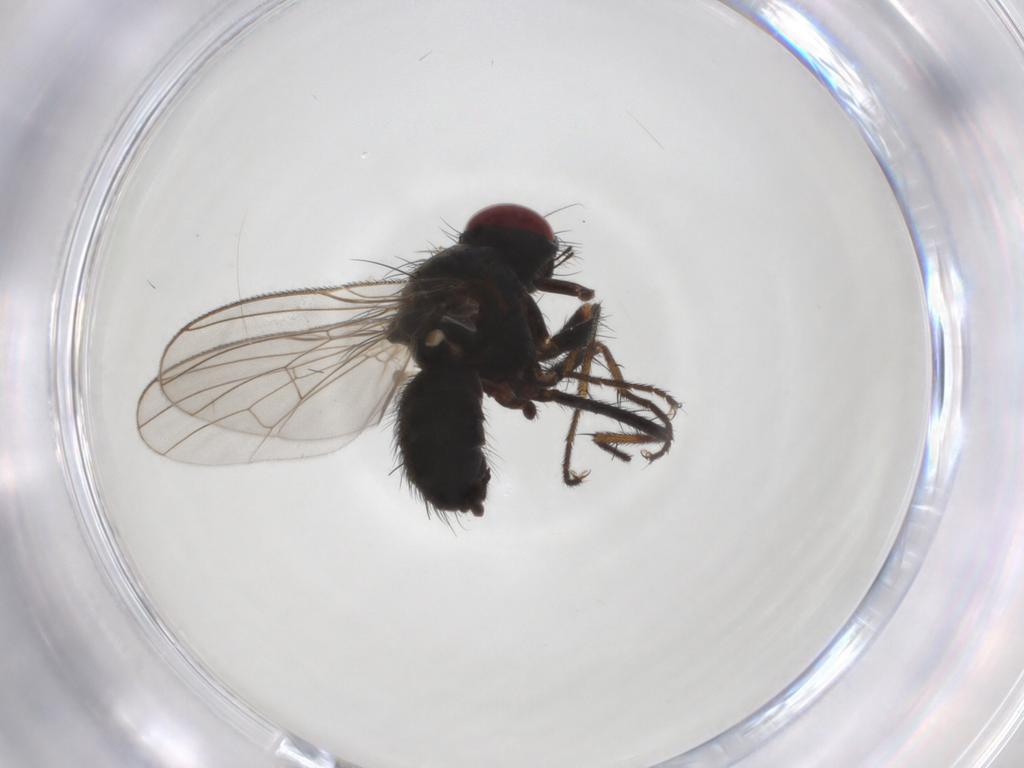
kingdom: Animalia
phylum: Arthropoda
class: Insecta
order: Diptera
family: Muscidae
